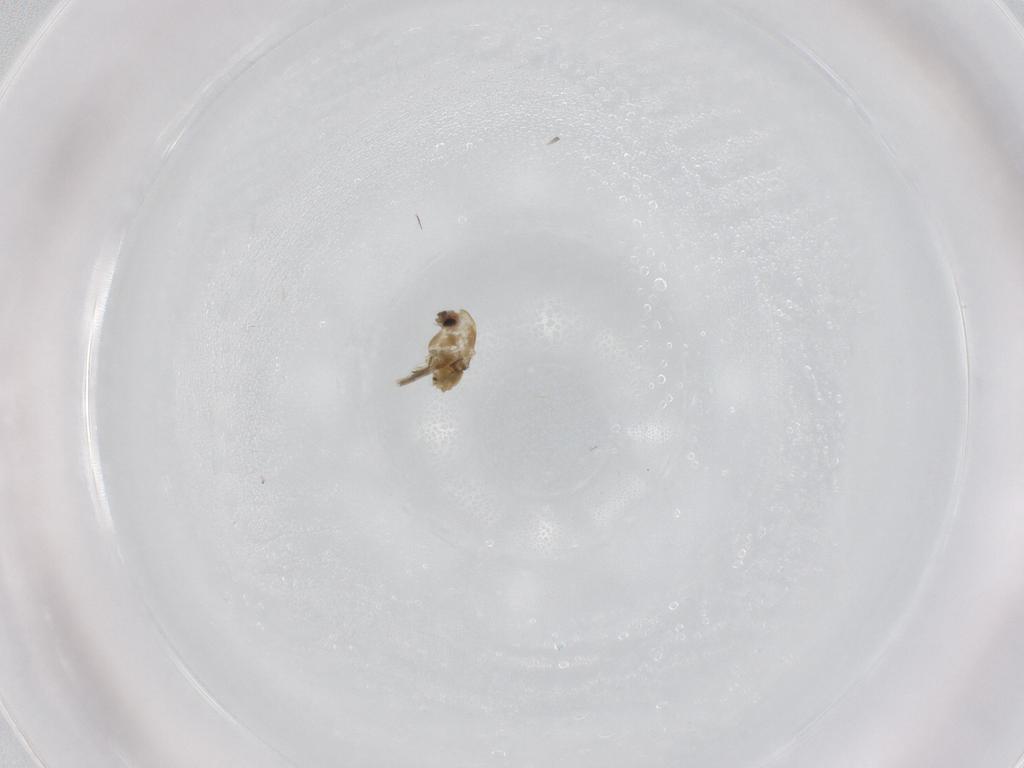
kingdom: Animalia
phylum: Arthropoda
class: Insecta
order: Diptera
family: Chironomidae
